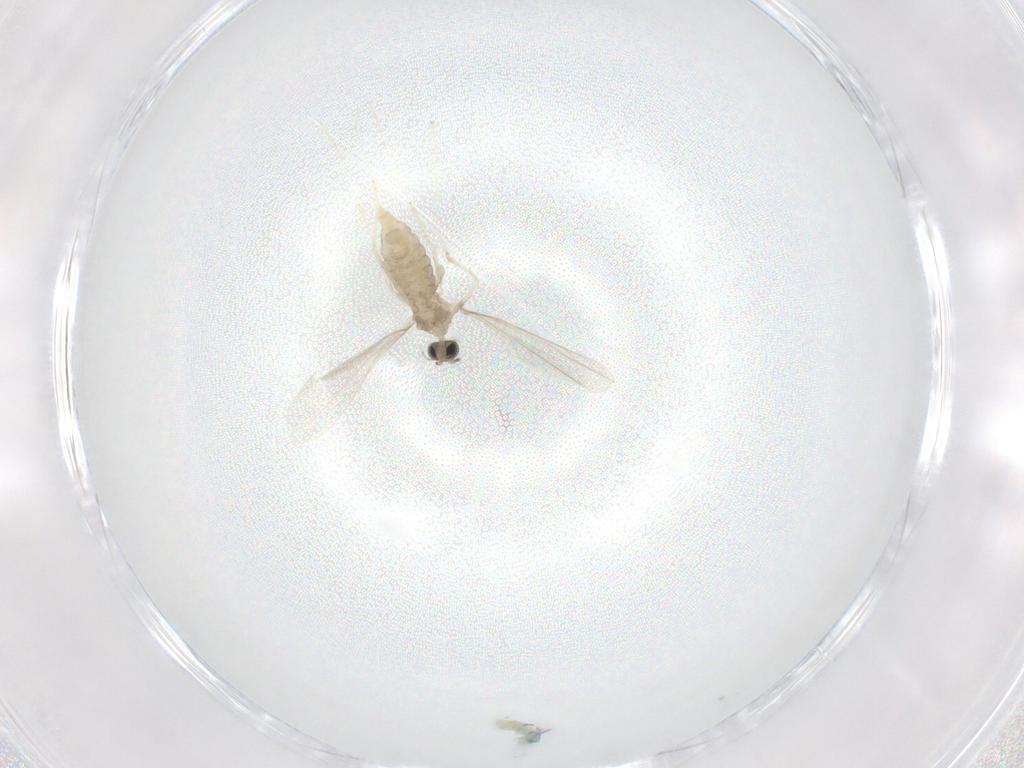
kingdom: Animalia
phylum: Arthropoda
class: Insecta
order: Diptera
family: Cecidomyiidae
